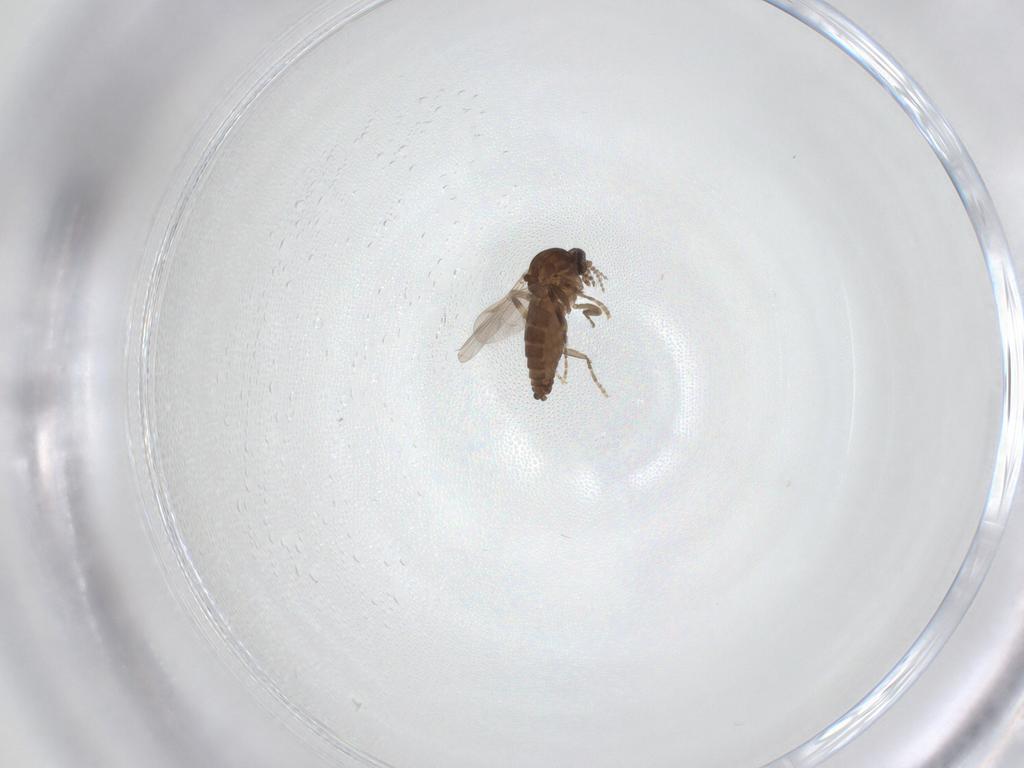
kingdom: Animalia
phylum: Arthropoda
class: Insecta
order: Diptera
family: Ceratopogonidae
